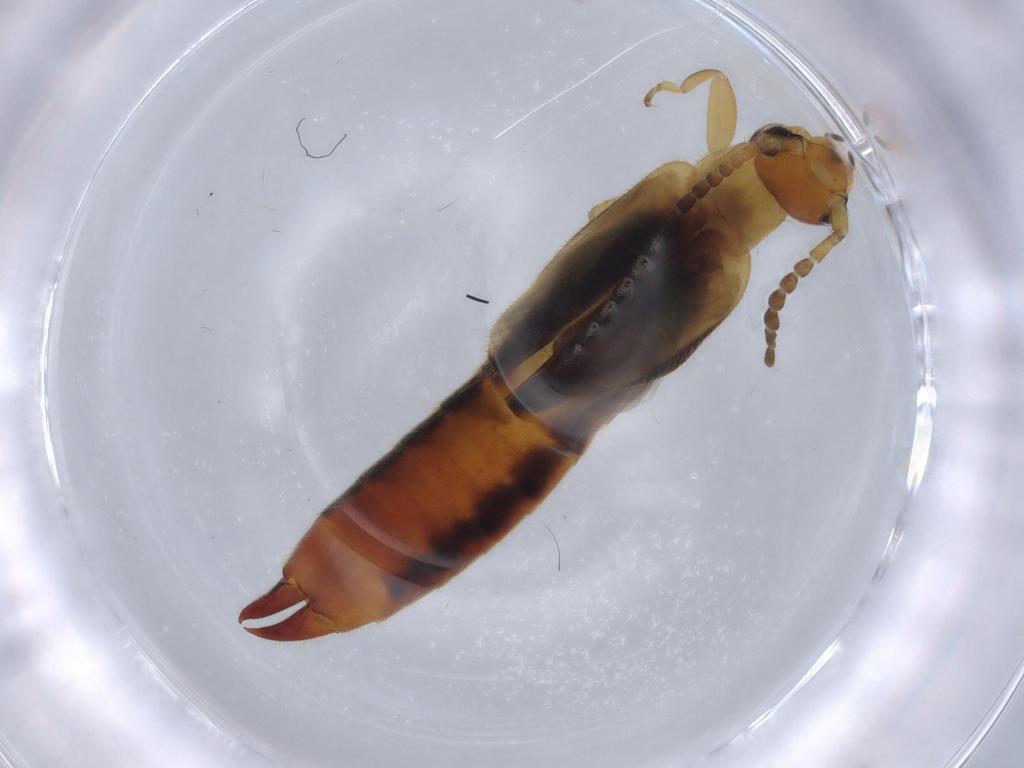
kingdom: Animalia
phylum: Arthropoda
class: Insecta
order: Dermaptera
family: Forficulidae
